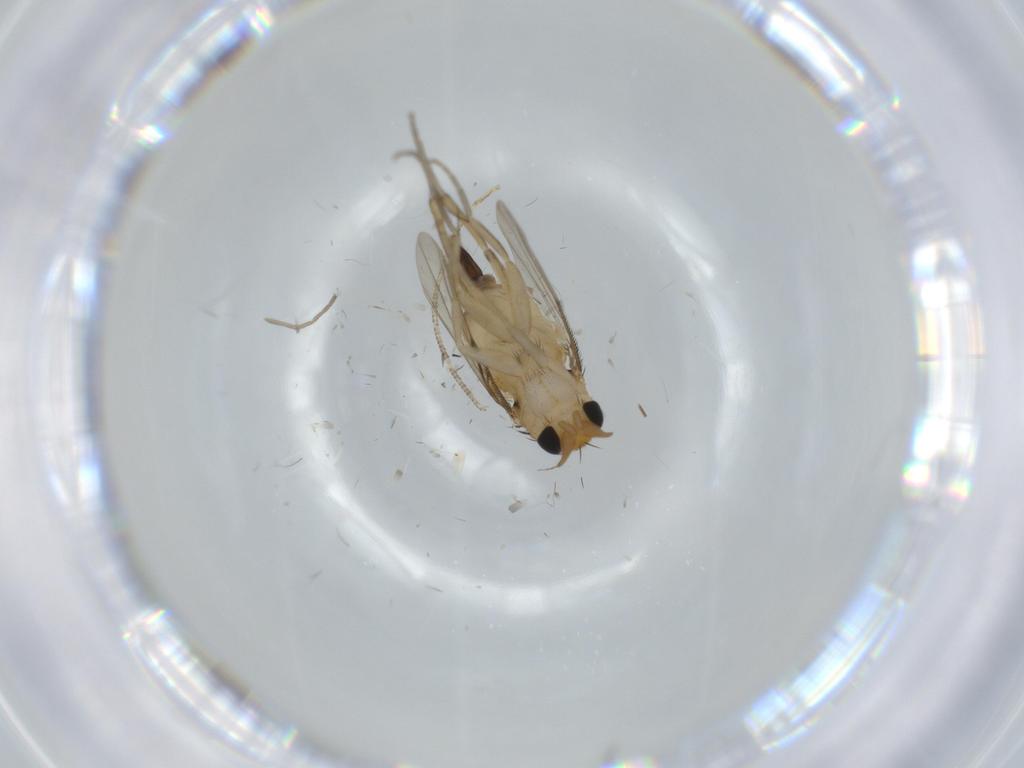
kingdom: Animalia
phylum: Arthropoda
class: Insecta
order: Diptera
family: Phoridae
